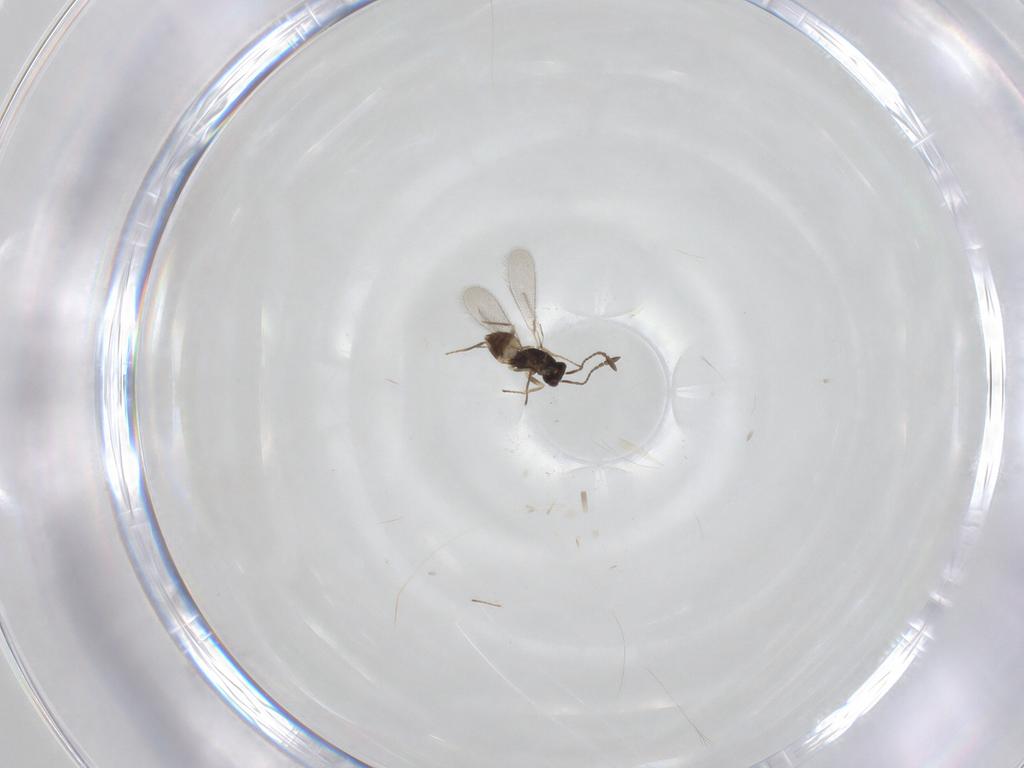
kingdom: Animalia
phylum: Arthropoda
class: Insecta
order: Hymenoptera
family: Mymaridae
